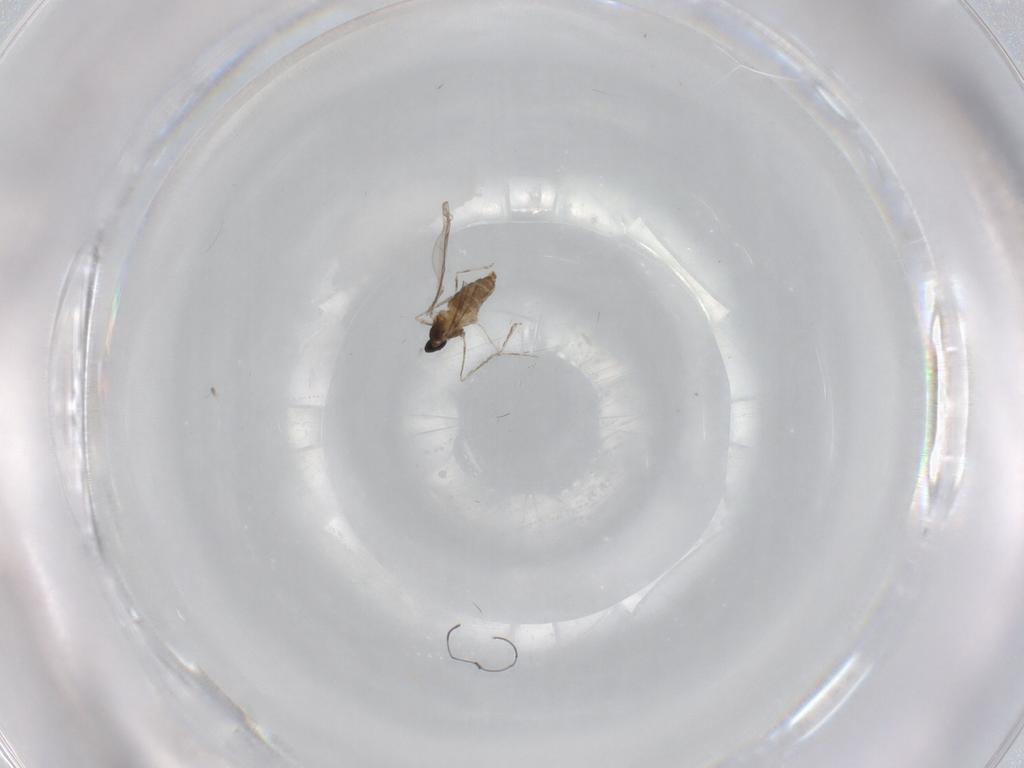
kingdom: Animalia
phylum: Arthropoda
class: Insecta
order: Diptera
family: Cecidomyiidae
